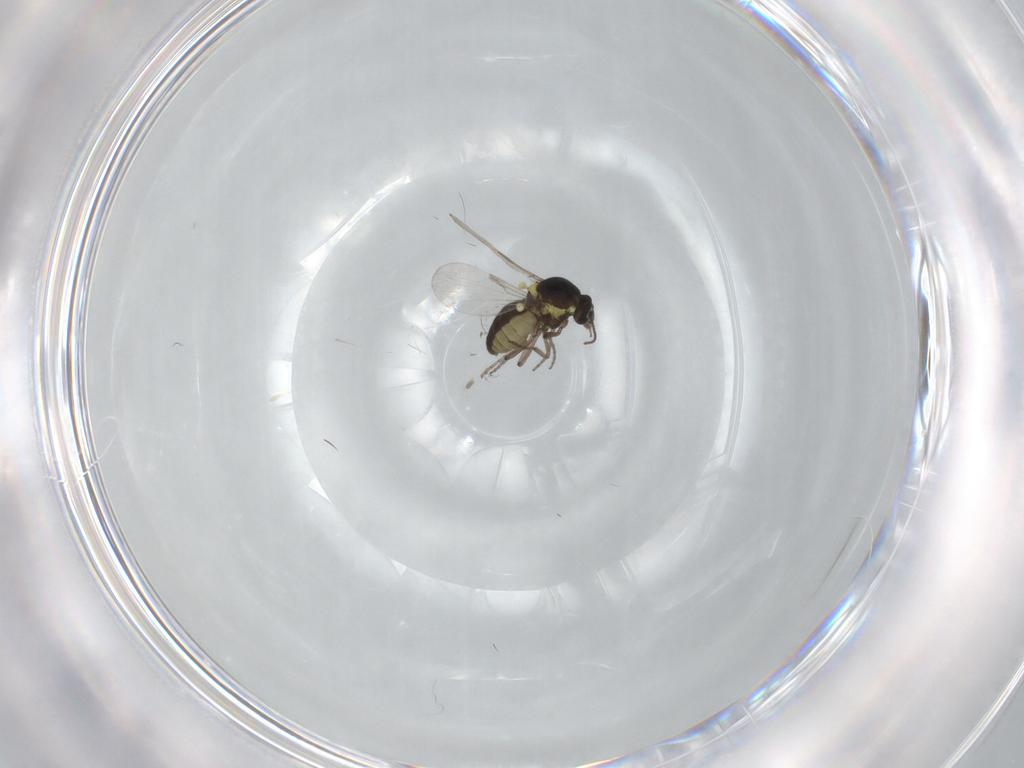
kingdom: Animalia
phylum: Arthropoda
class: Insecta
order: Diptera
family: Ceratopogonidae
